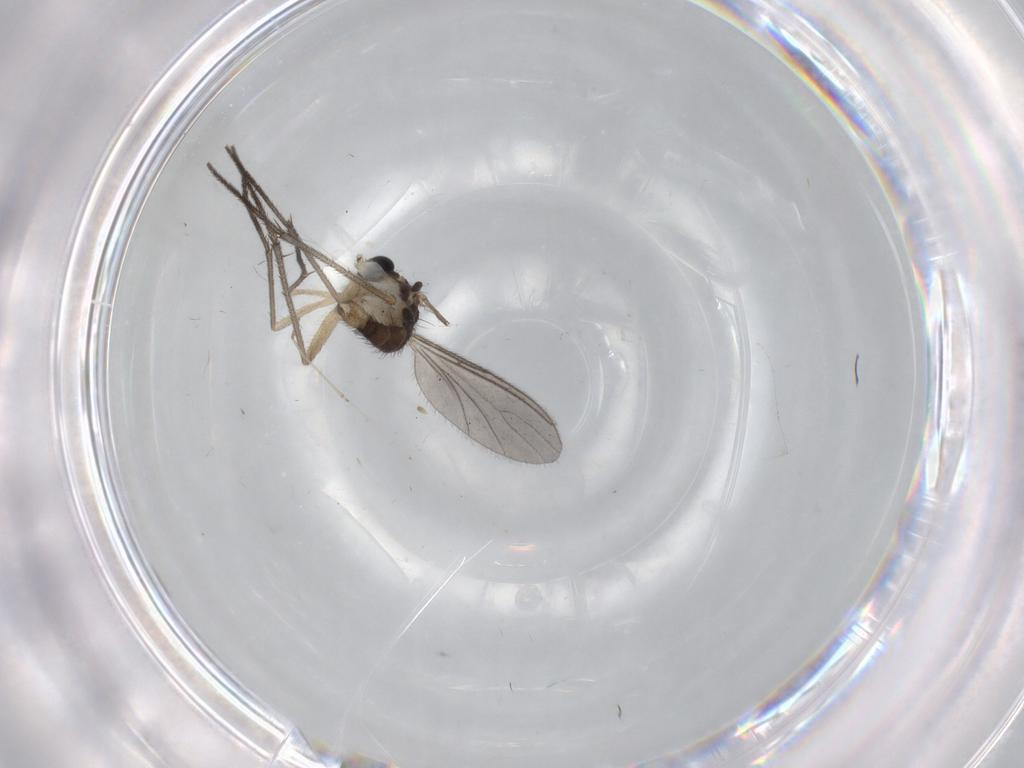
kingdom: Animalia
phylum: Arthropoda
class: Insecta
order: Diptera
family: Sciaridae
